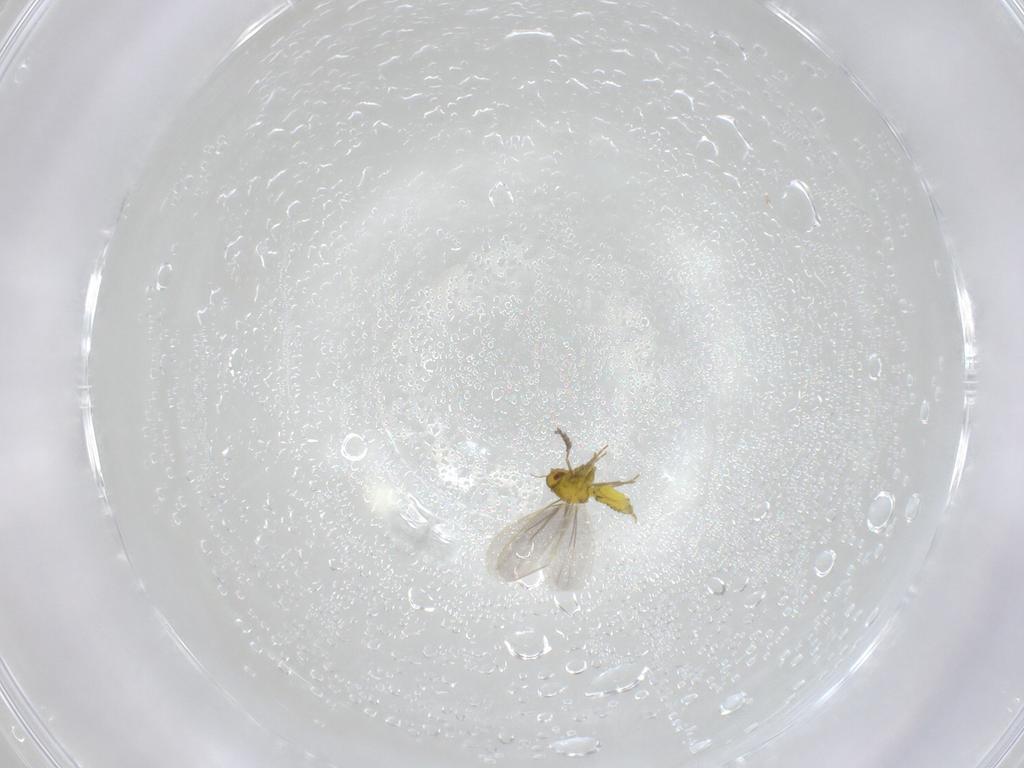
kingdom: Animalia
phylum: Arthropoda
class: Insecta
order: Hemiptera
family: Aleyrodidae
